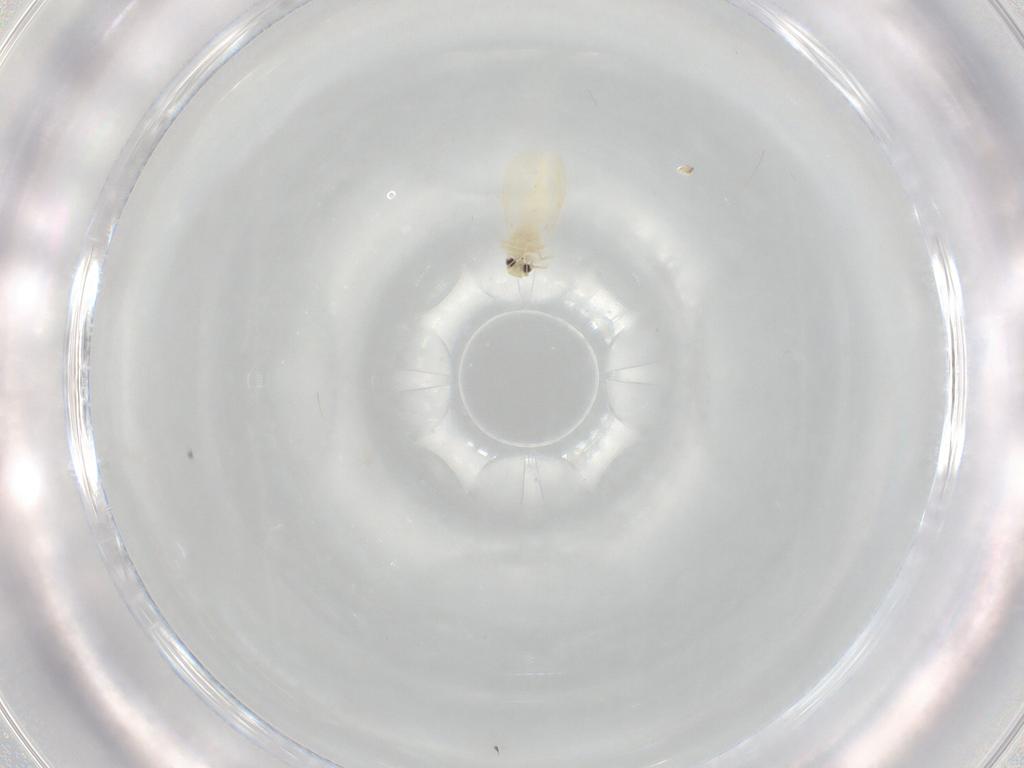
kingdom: Animalia
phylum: Arthropoda
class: Insecta
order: Hemiptera
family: Aleyrodidae
